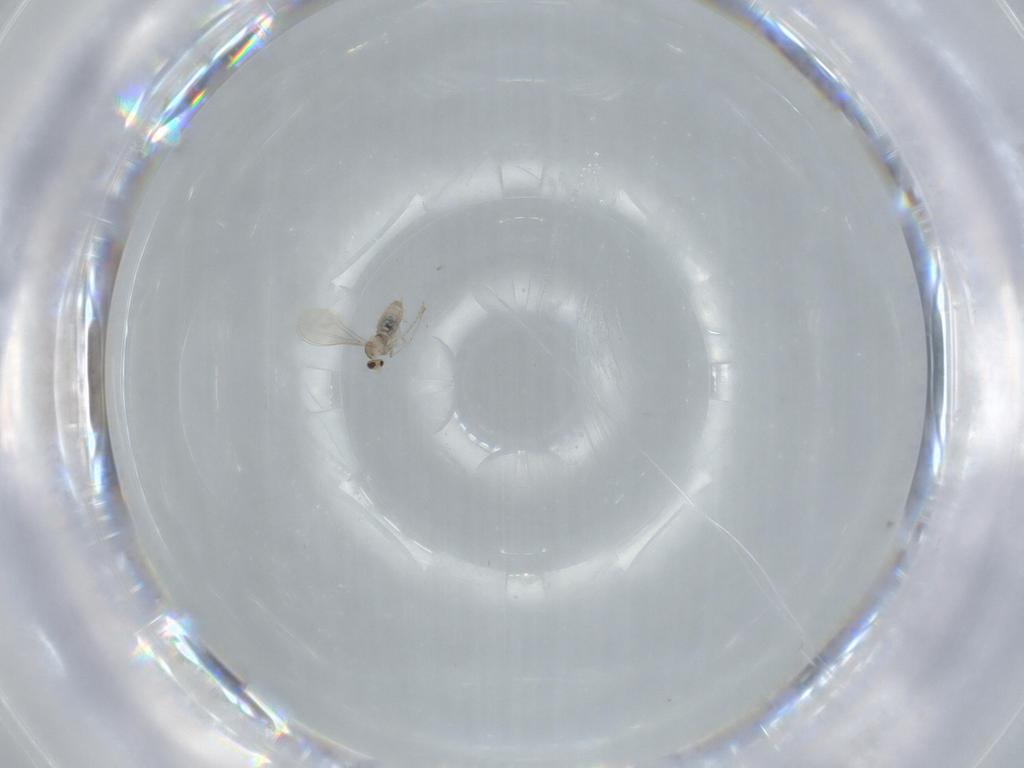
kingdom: Animalia
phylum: Arthropoda
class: Insecta
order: Diptera
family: Cecidomyiidae
